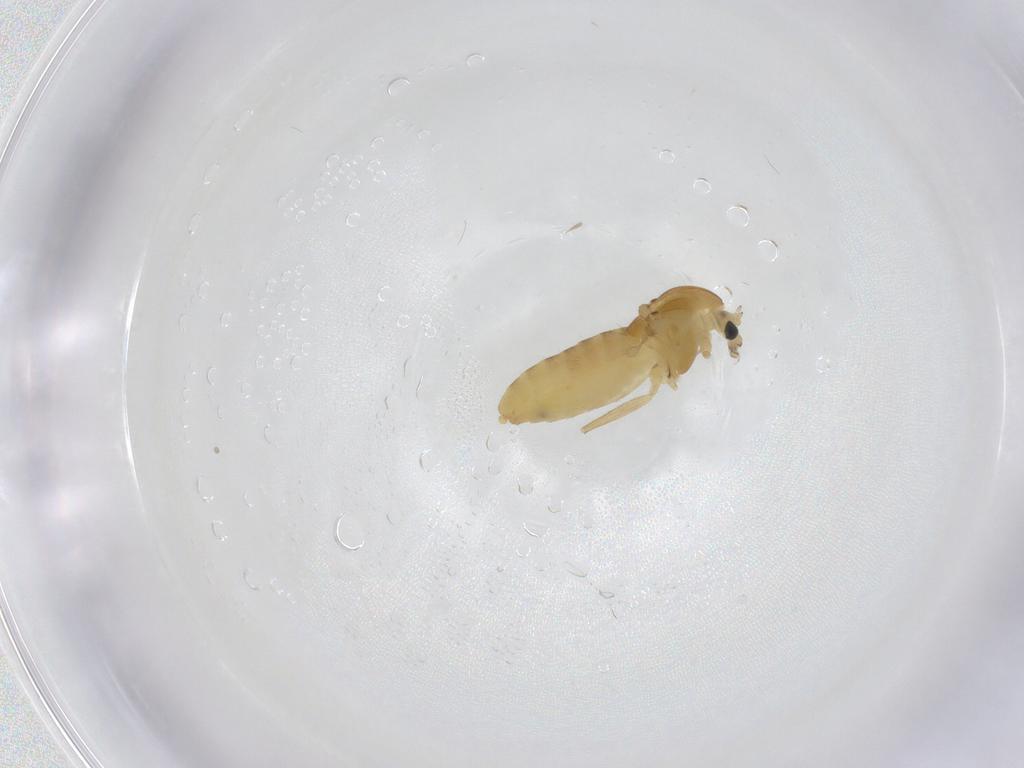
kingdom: Animalia
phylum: Arthropoda
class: Insecta
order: Diptera
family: Chironomidae
